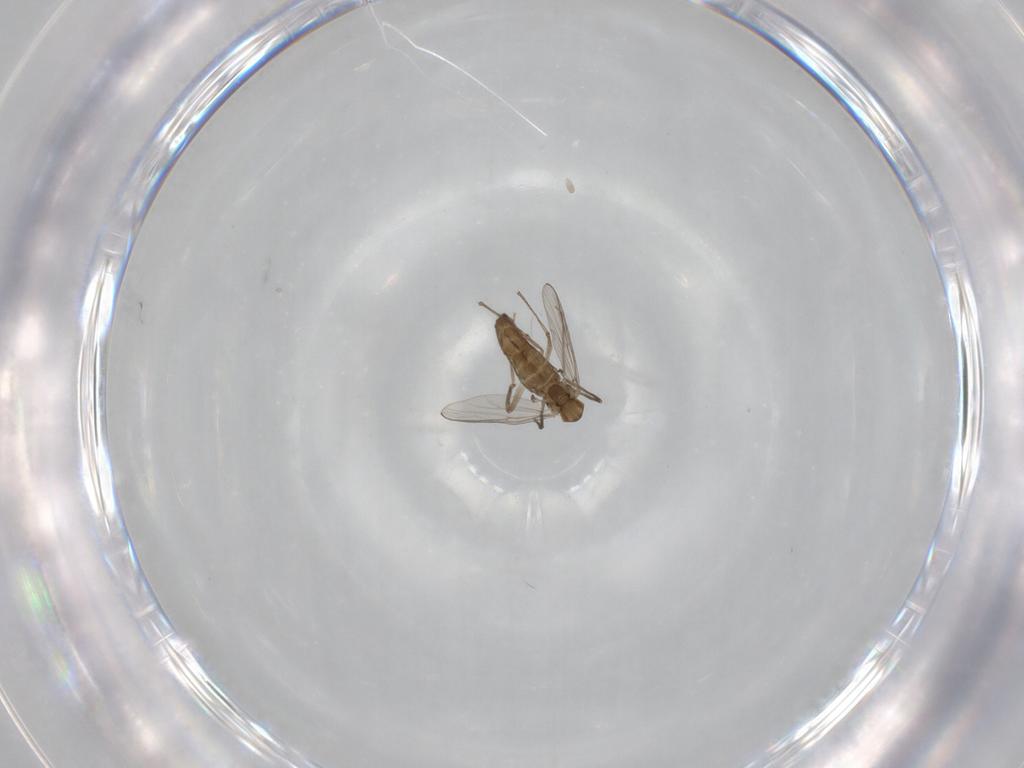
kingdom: Animalia
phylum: Arthropoda
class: Insecta
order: Diptera
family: Chironomidae
